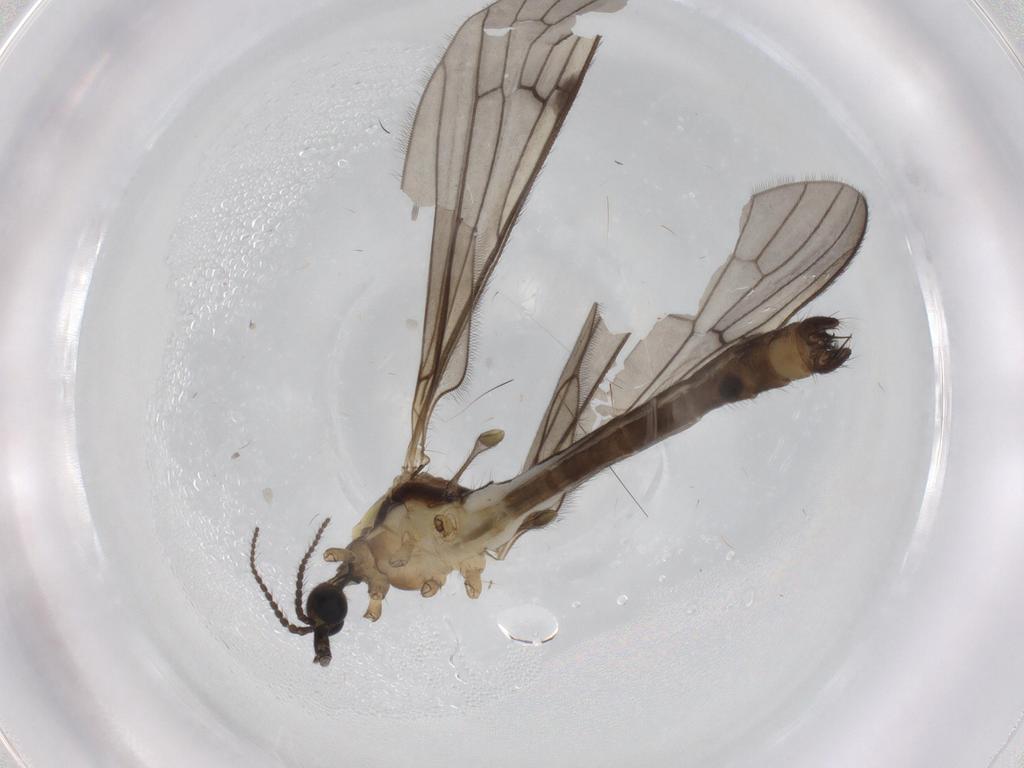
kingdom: Animalia
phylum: Arthropoda
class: Insecta
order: Diptera
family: Limoniidae
